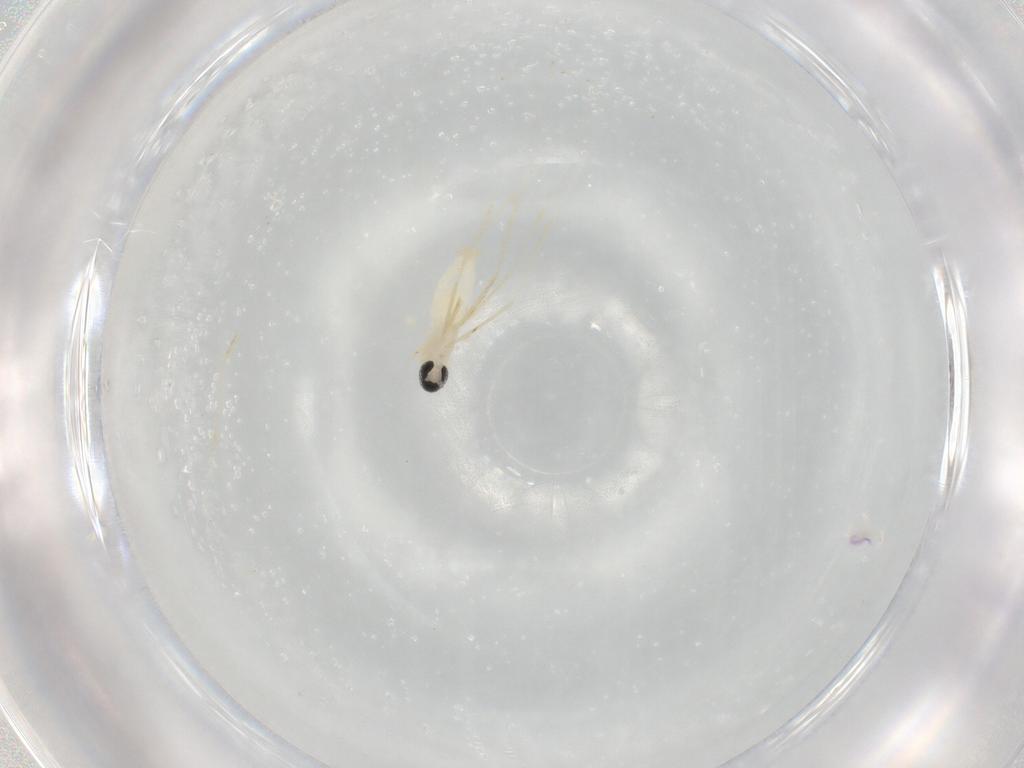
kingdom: Animalia
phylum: Arthropoda
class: Insecta
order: Diptera
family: Cecidomyiidae
